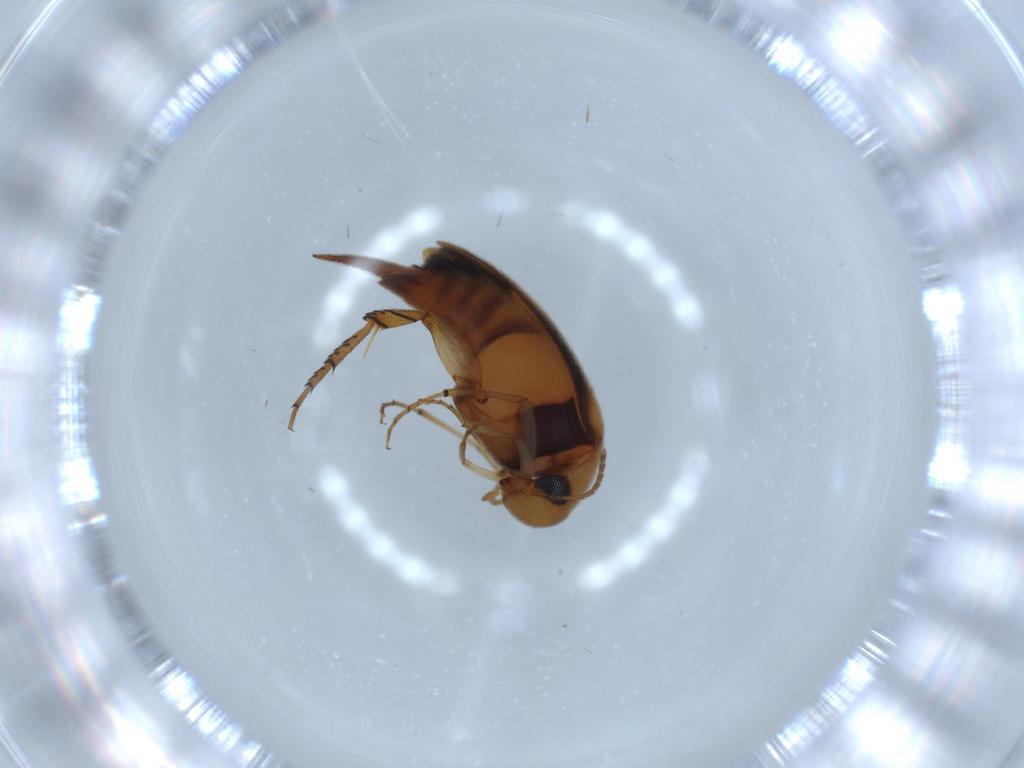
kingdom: Animalia
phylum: Arthropoda
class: Insecta
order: Coleoptera
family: Mordellidae
